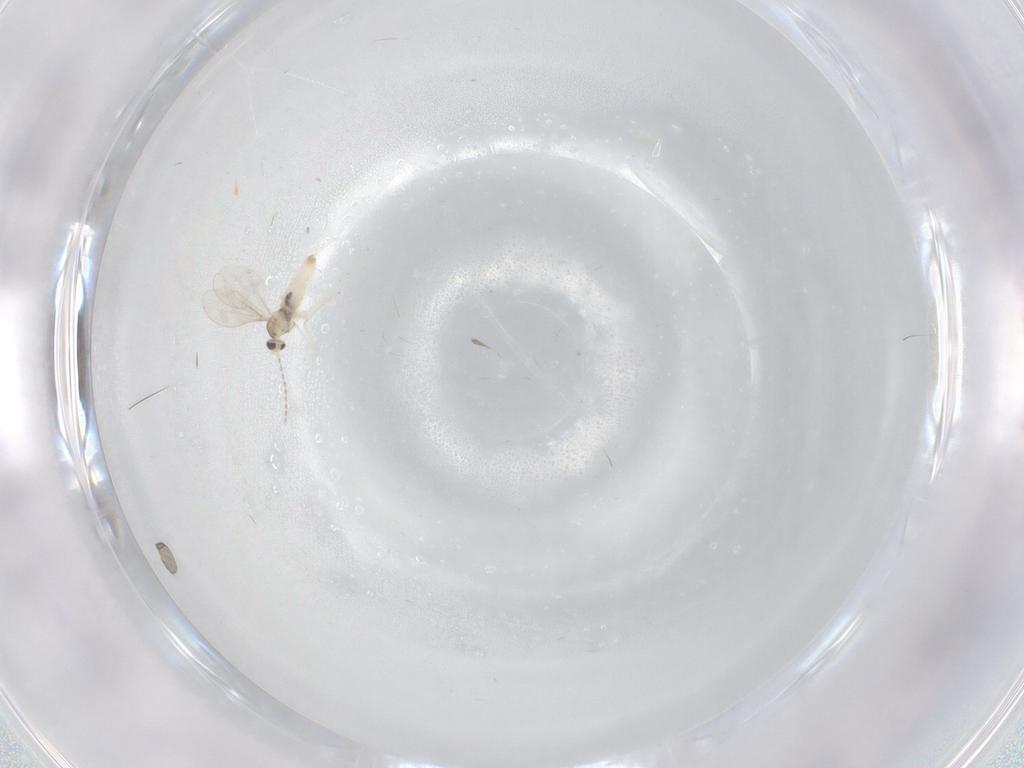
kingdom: Animalia
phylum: Arthropoda
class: Insecta
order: Diptera
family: Chironomidae
